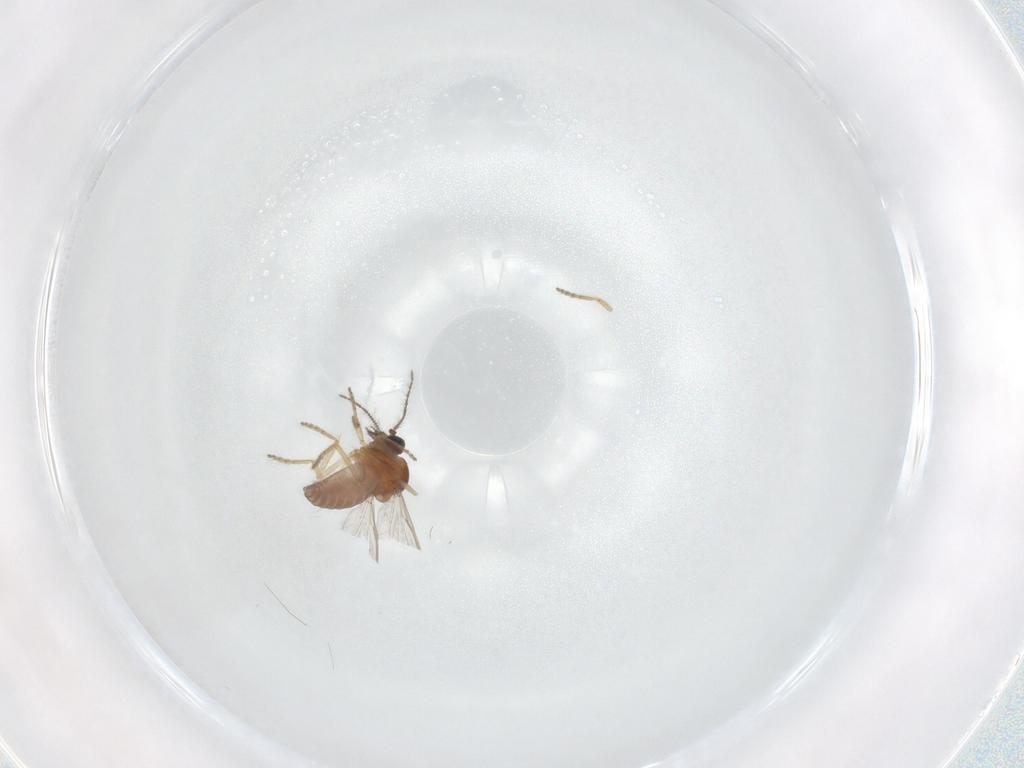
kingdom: Animalia
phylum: Arthropoda
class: Insecta
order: Diptera
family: Ceratopogonidae
